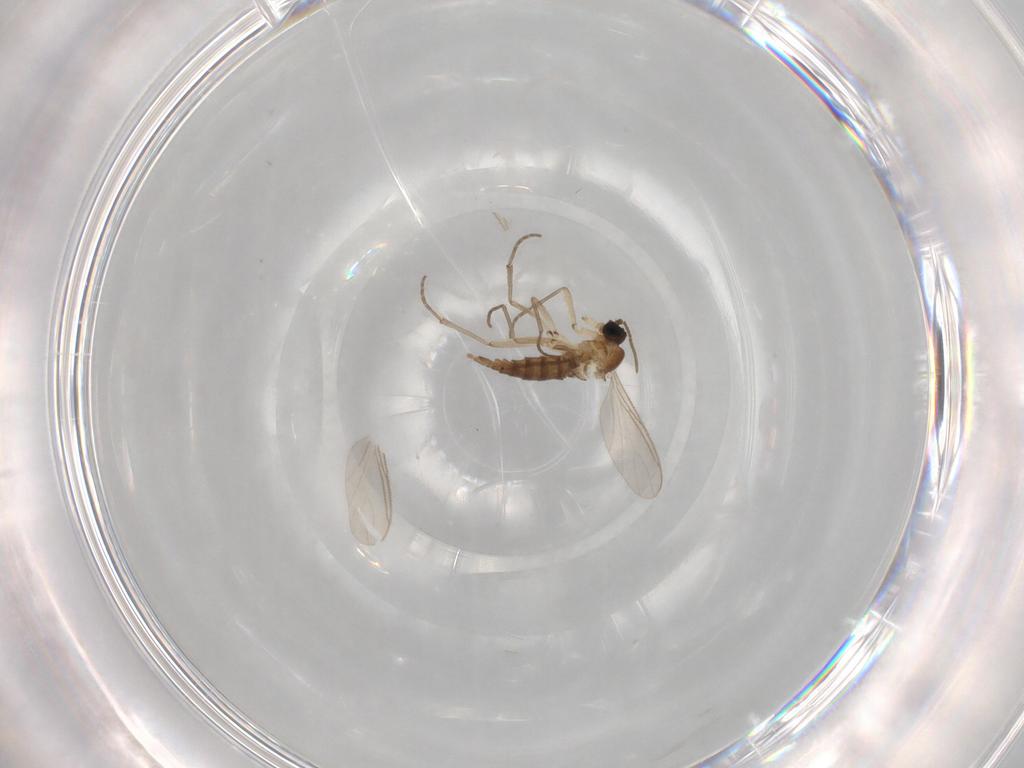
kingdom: Animalia
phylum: Arthropoda
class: Insecta
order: Diptera
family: Sciaridae
